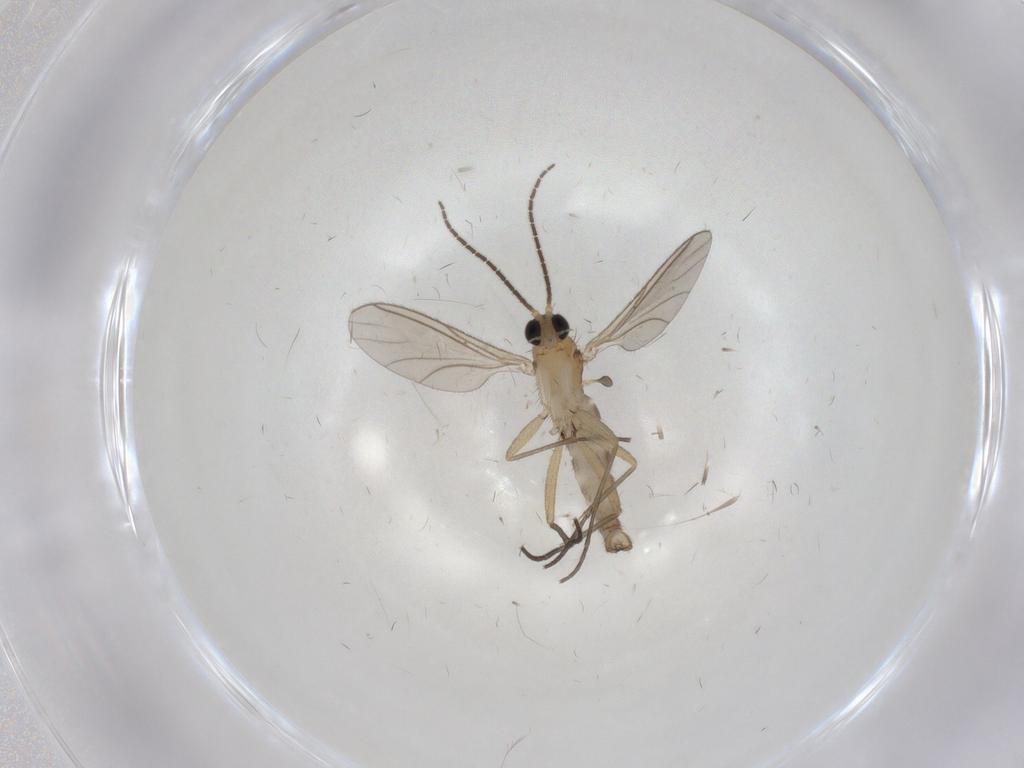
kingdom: Animalia
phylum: Arthropoda
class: Insecta
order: Diptera
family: Sciaridae
